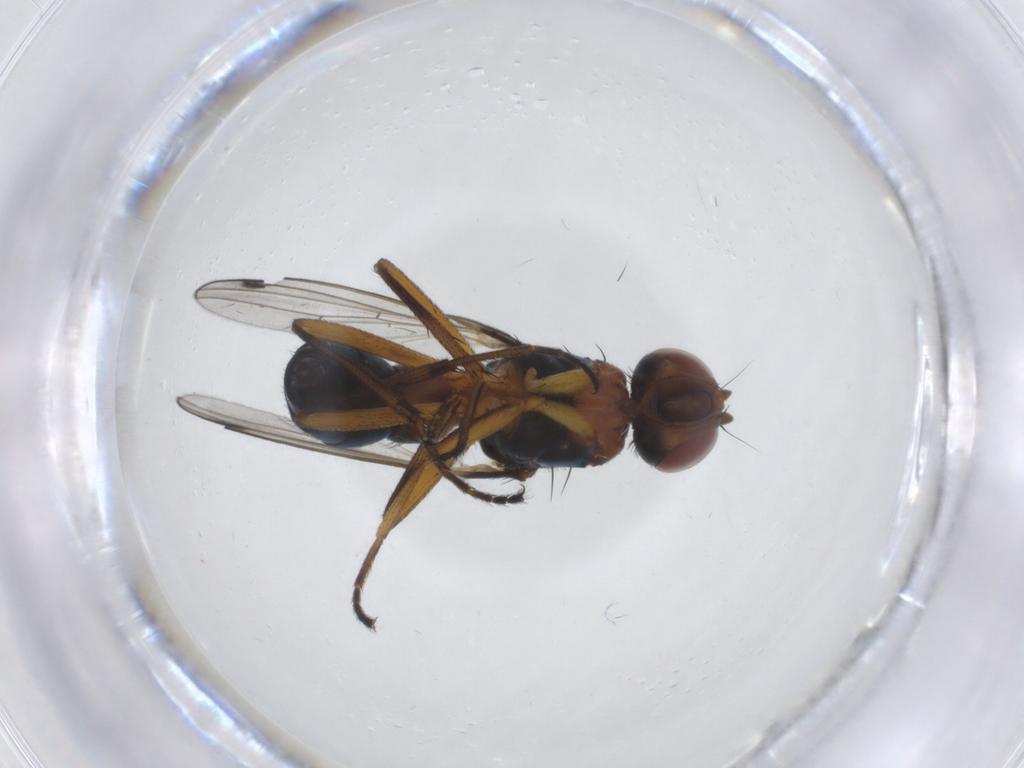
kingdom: Animalia
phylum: Arthropoda
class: Insecta
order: Diptera
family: Sepsidae
